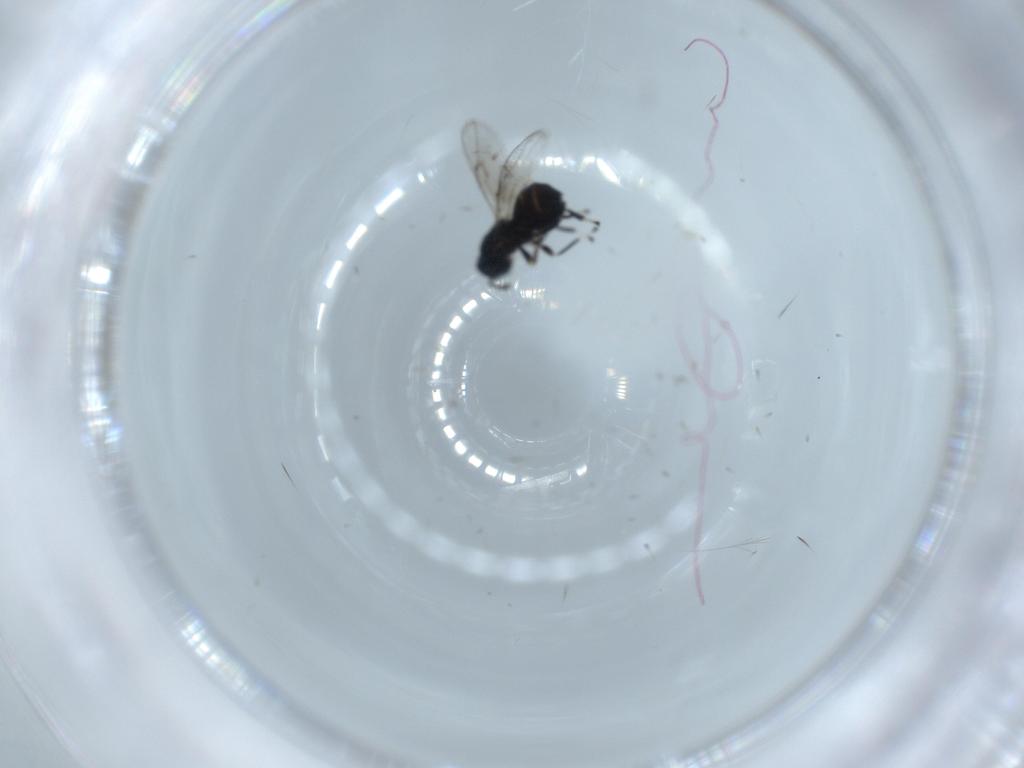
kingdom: Animalia
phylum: Arthropoda
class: Insecta
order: Hymenoptera
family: Eulophidae
